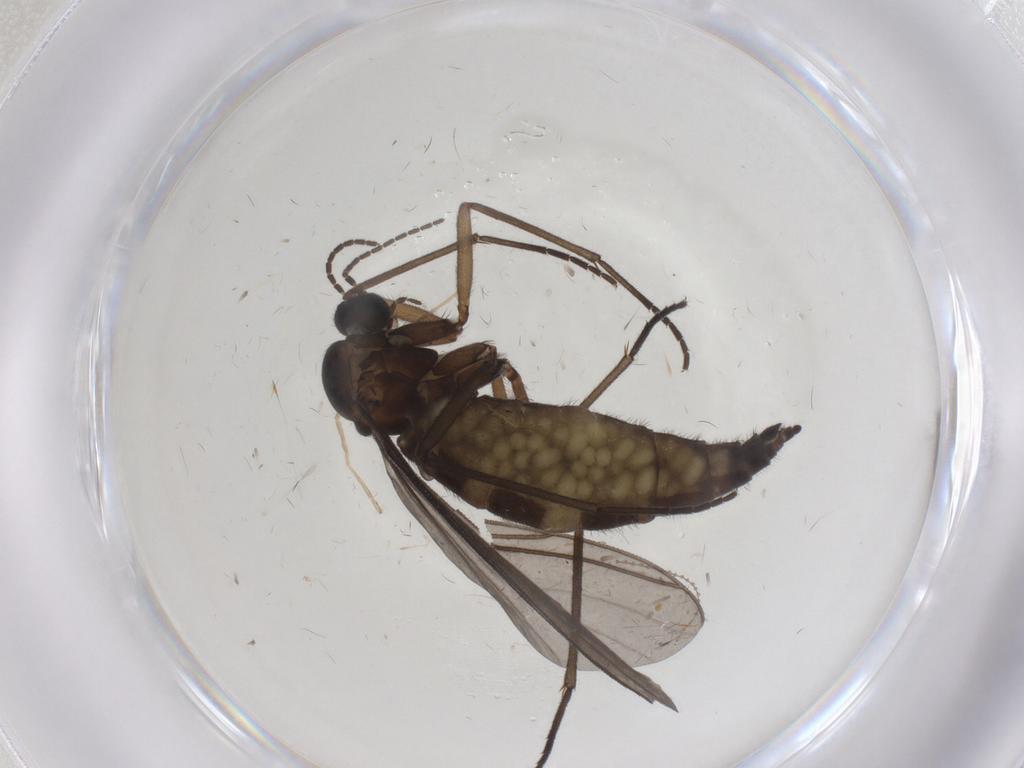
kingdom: Animalia
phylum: Arthropoda
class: Insecta
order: Diptera
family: Sciaridae
